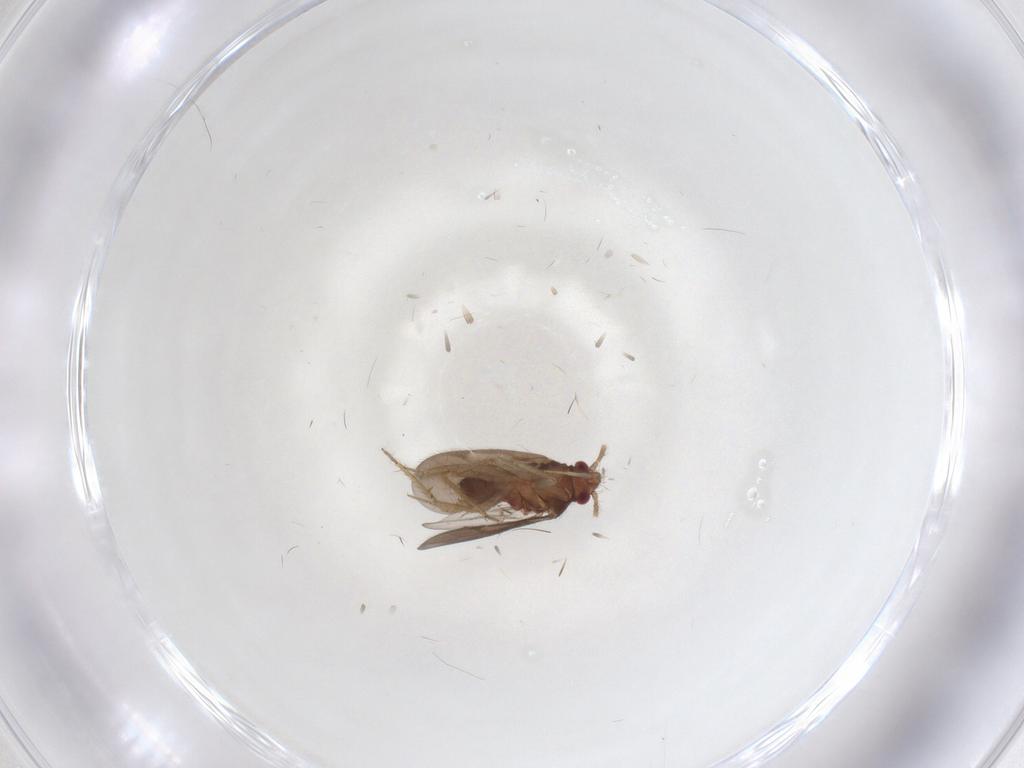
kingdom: Animalia
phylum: Arthropoda
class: Insecta
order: Hemiptera
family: Ceratocombidae
